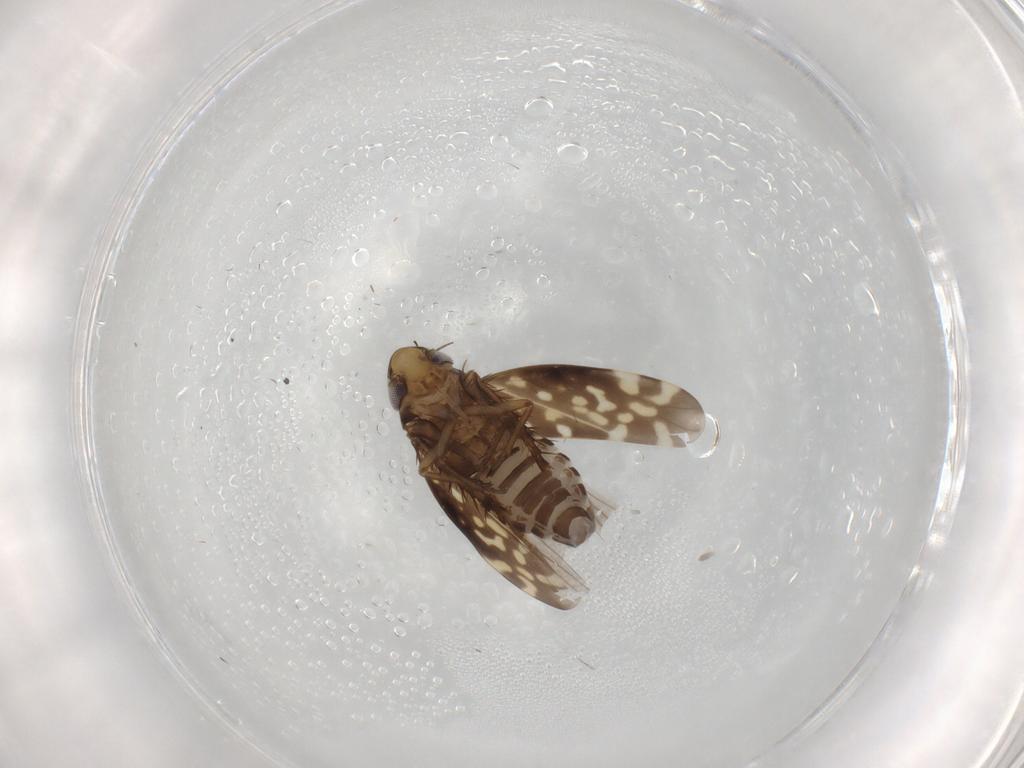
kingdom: Animalia
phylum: Arthropoda
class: Insecta
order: Hemiptera
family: Cicadellidae
